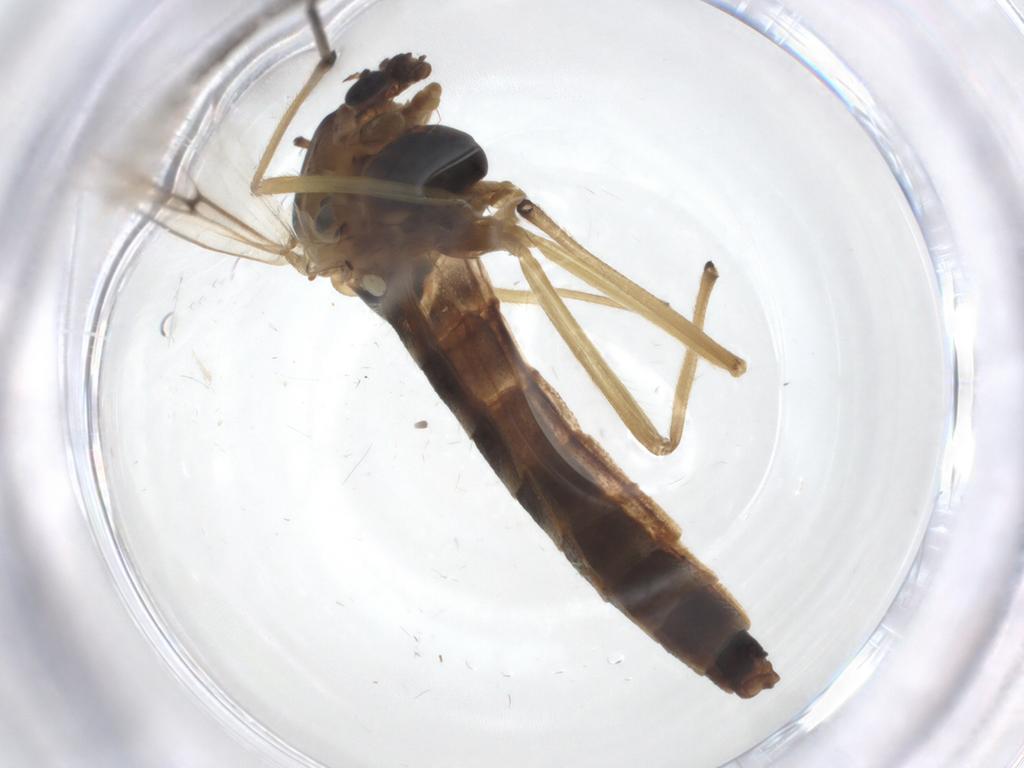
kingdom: Animalia
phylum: Arthropoda
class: Insecta
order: Diptera
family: Chironomidae
